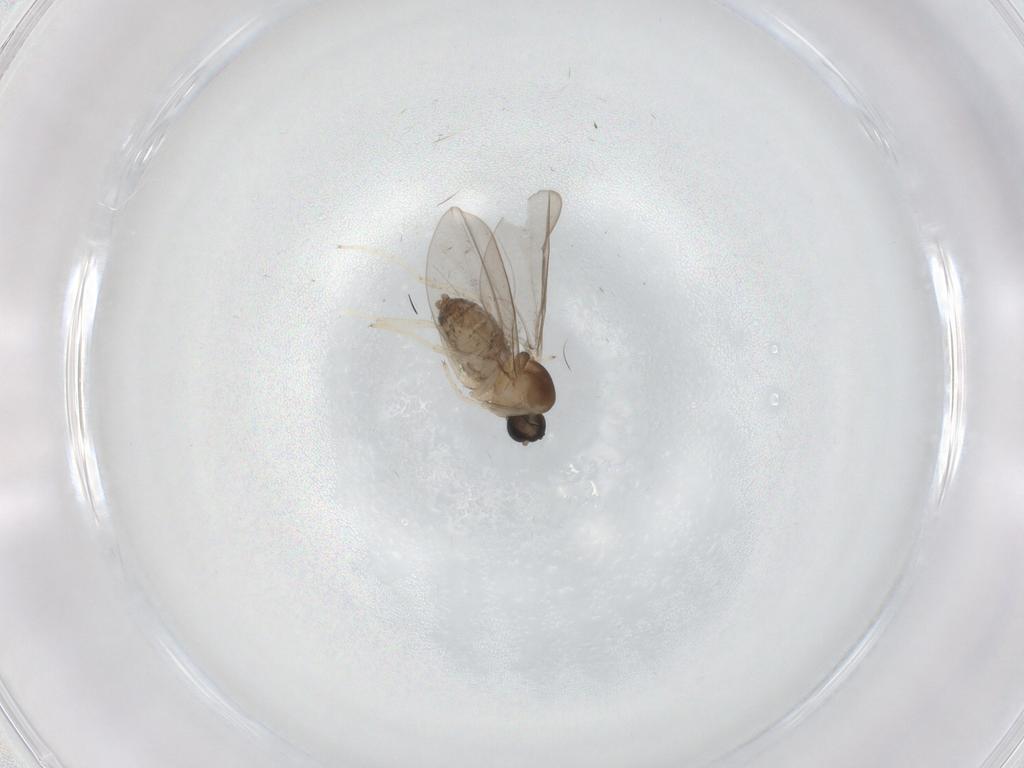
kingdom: Animalia
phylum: Arthropoda
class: Insecta
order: Diptera
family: Cecidomyiidae
